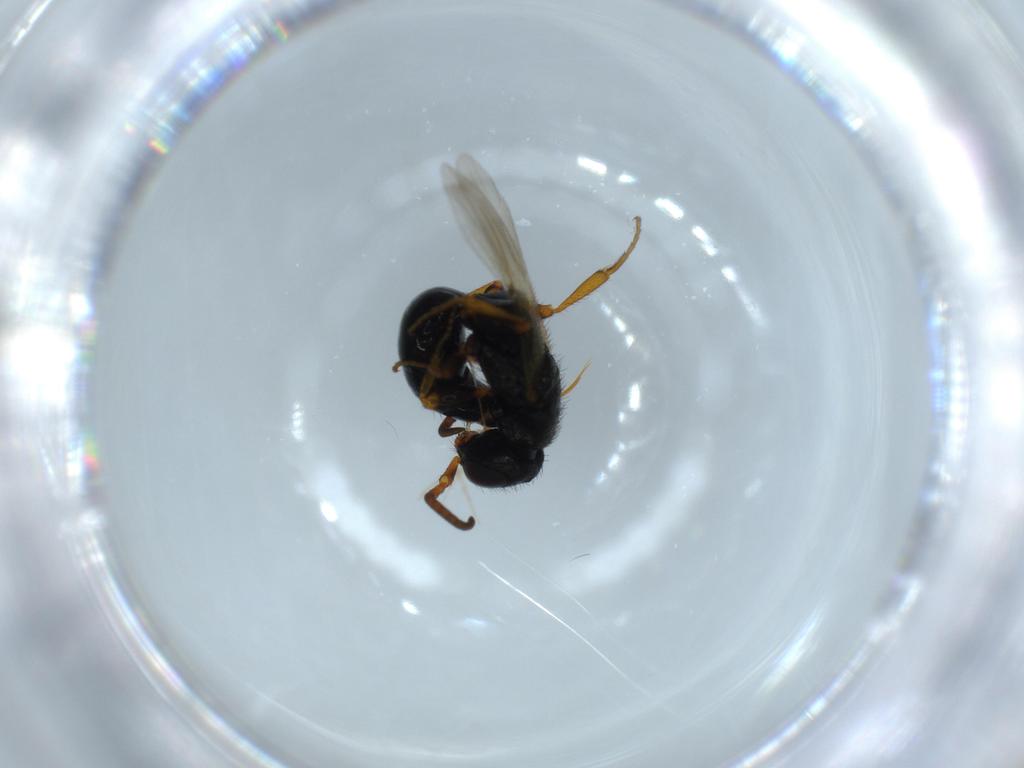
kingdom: Animalia
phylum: Arthropoda
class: Insecta
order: Hymenoptera
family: Bethylidae
